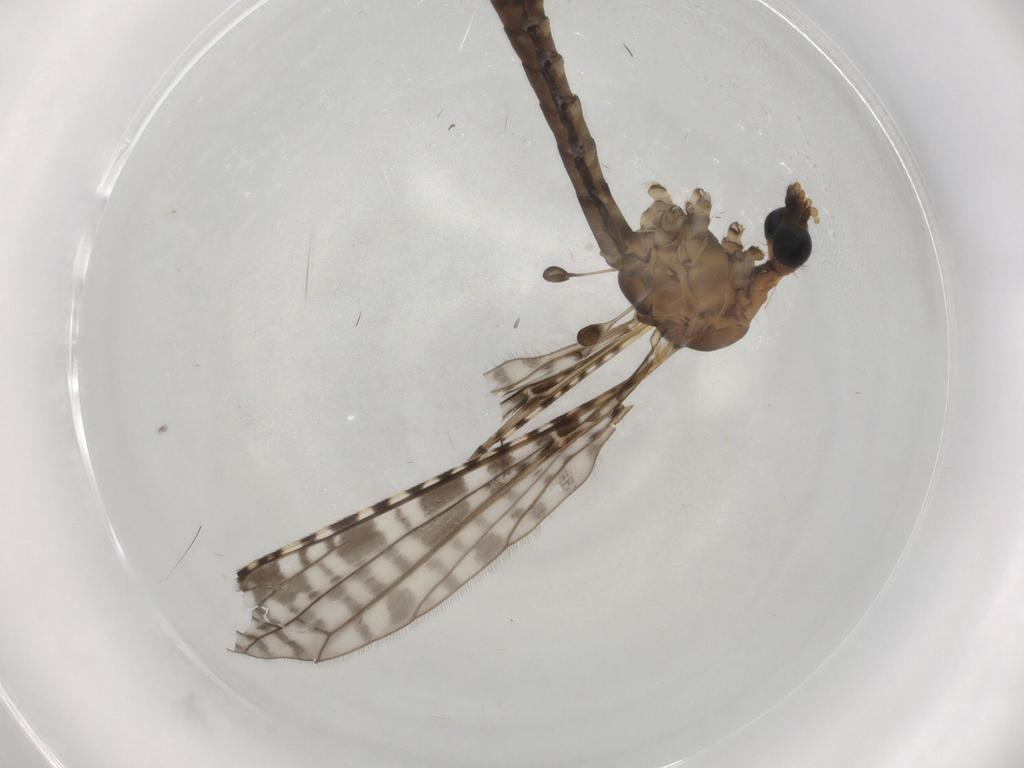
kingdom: Animalia
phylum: Arthropoda
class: Insecta
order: Diptera
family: Chloropidae
